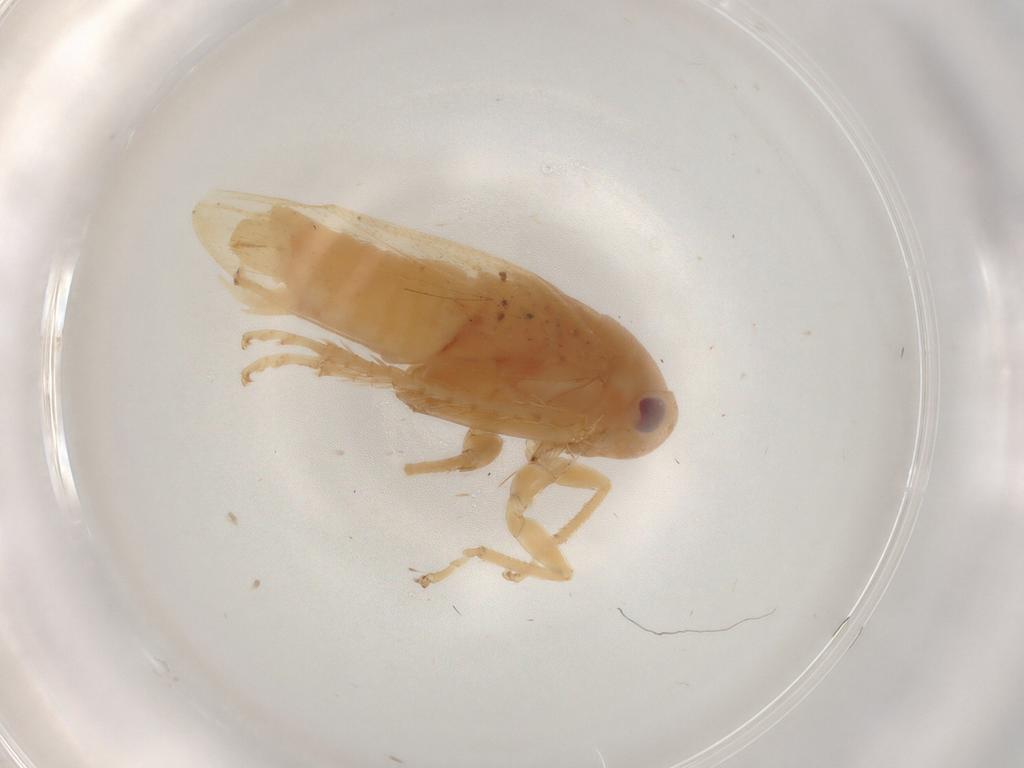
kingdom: Animalia
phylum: Arthropoda
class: Insecta
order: Hemiptera
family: Cicadellidae
